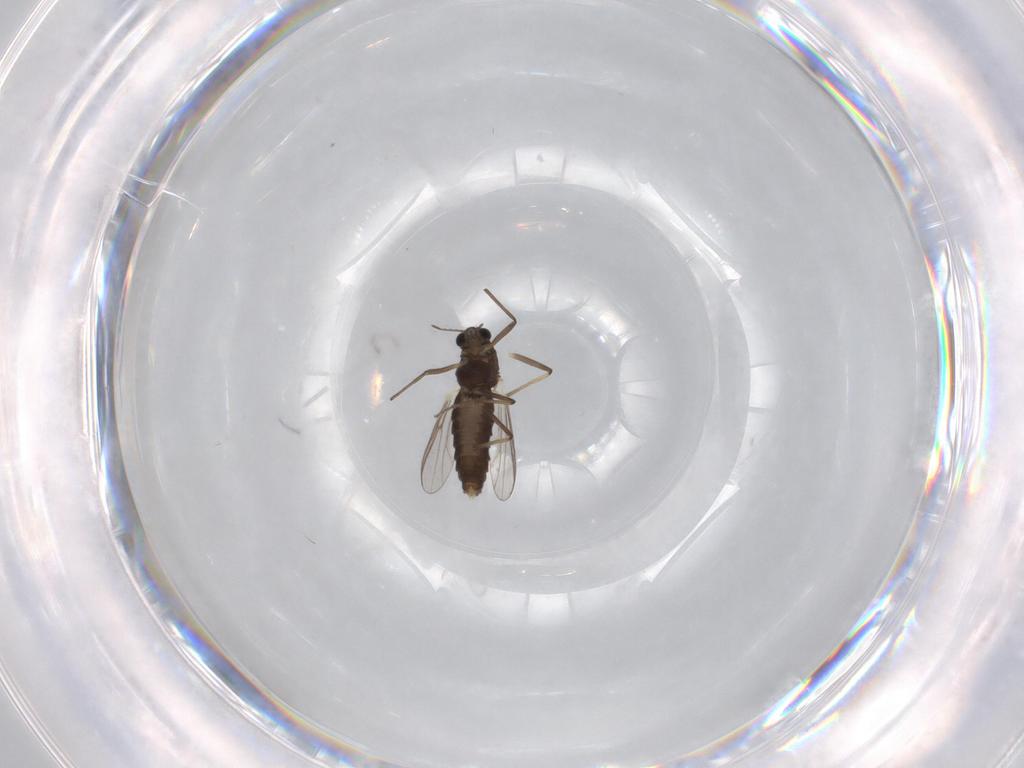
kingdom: Animalia
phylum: Arthropoda
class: Insecta
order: Diptera
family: Chironomidae
